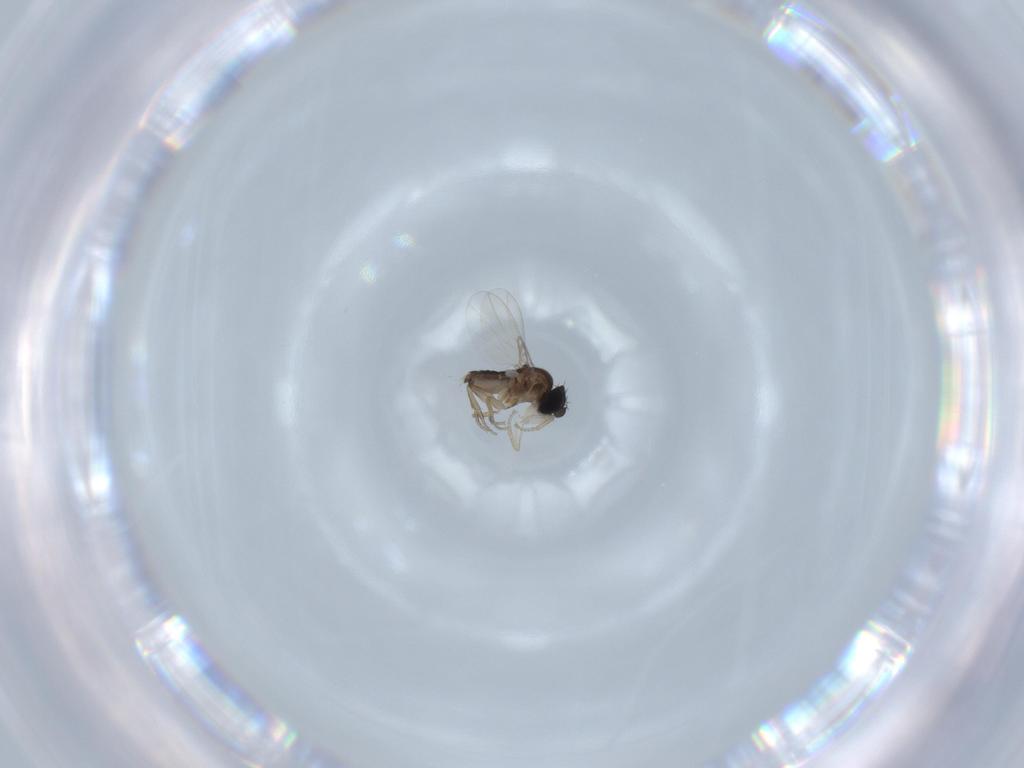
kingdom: Animalia
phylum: Arthropoda
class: Insecta
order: Diptera
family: Phoridae
